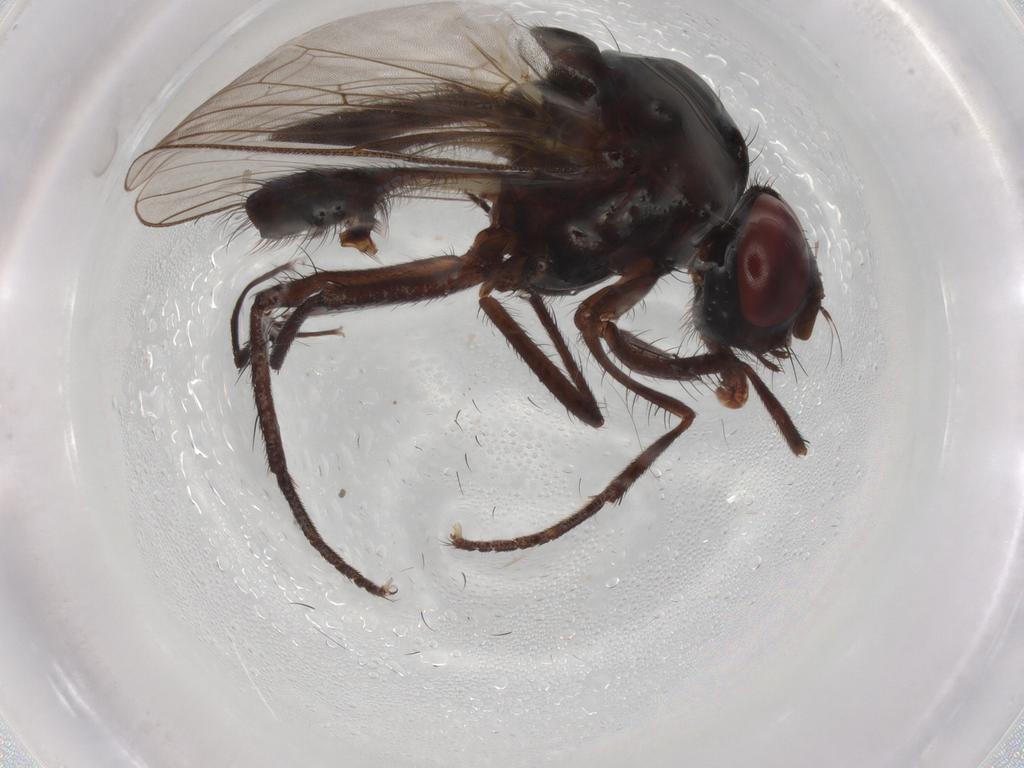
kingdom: Animalia
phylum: Arthropoda
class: Insecta
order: Diptera
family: Anthomyiidae
